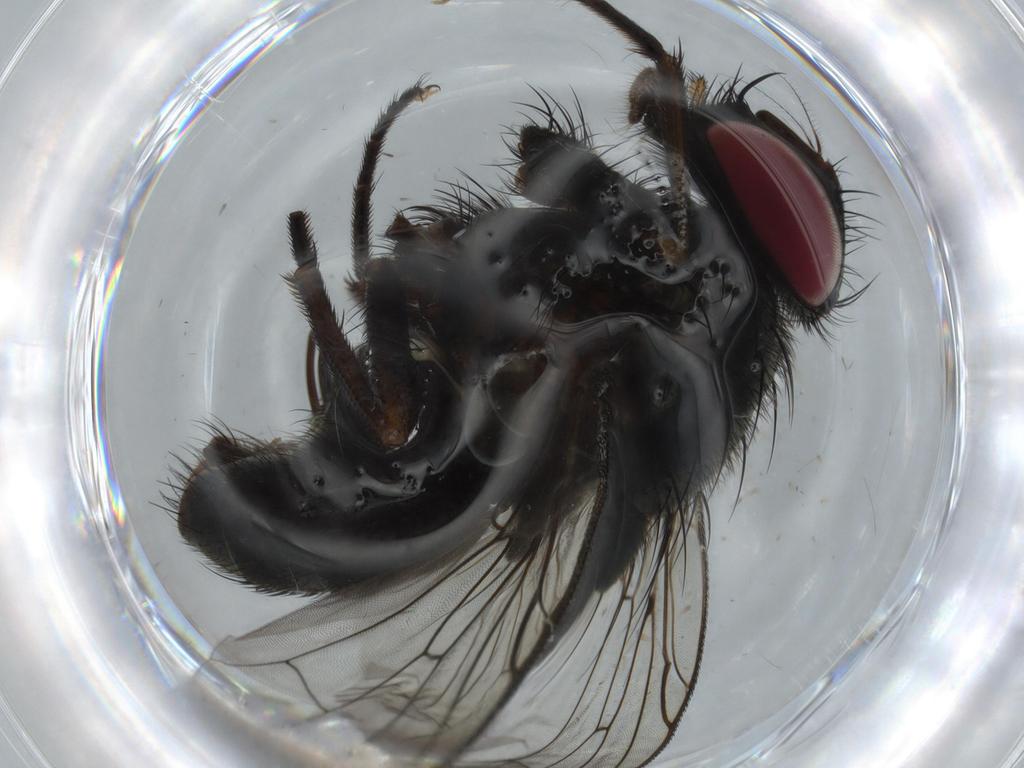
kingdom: Animalia
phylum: Arthropoda
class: Insecta
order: Diptera
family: Muscidae
